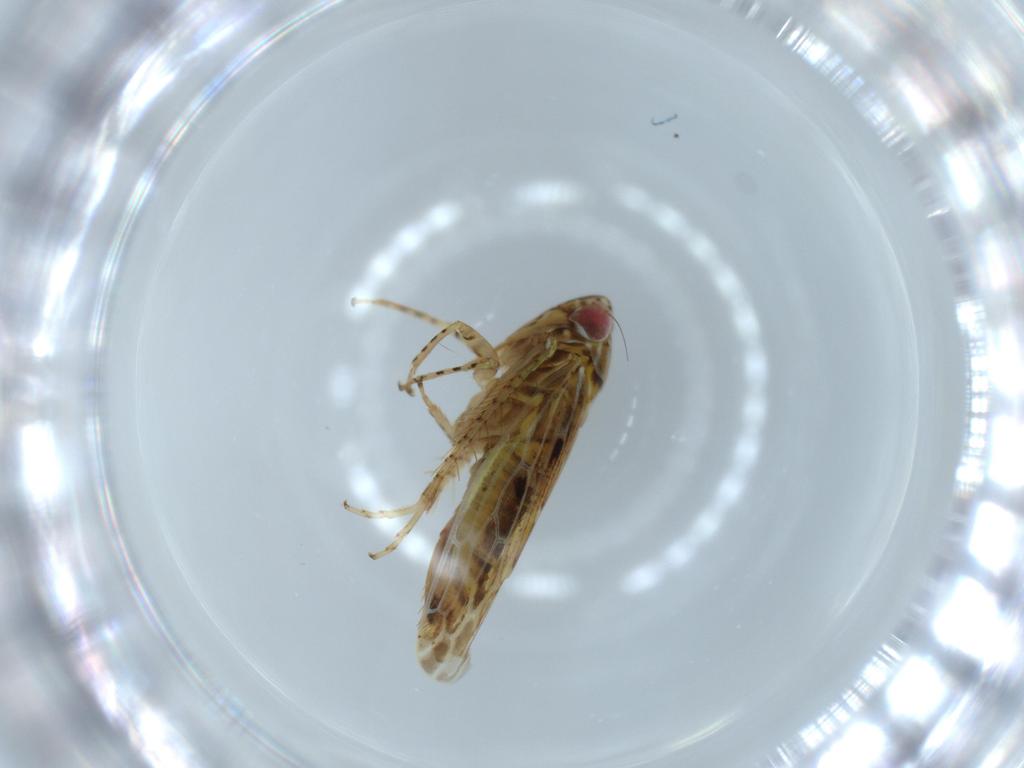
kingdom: Animalia
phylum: Arthropoda
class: Insecta
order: Hemiptera
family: Cicadellidae
